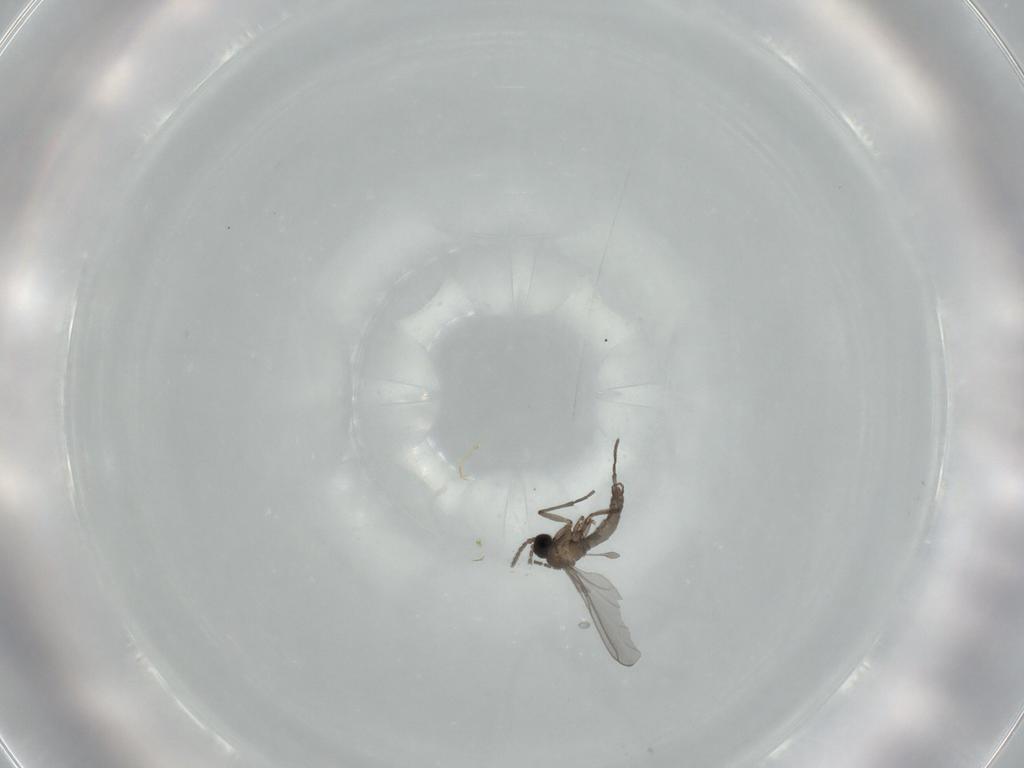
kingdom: Animalia
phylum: Arthropoda
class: Insecta
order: Diptera
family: Sciaridae
